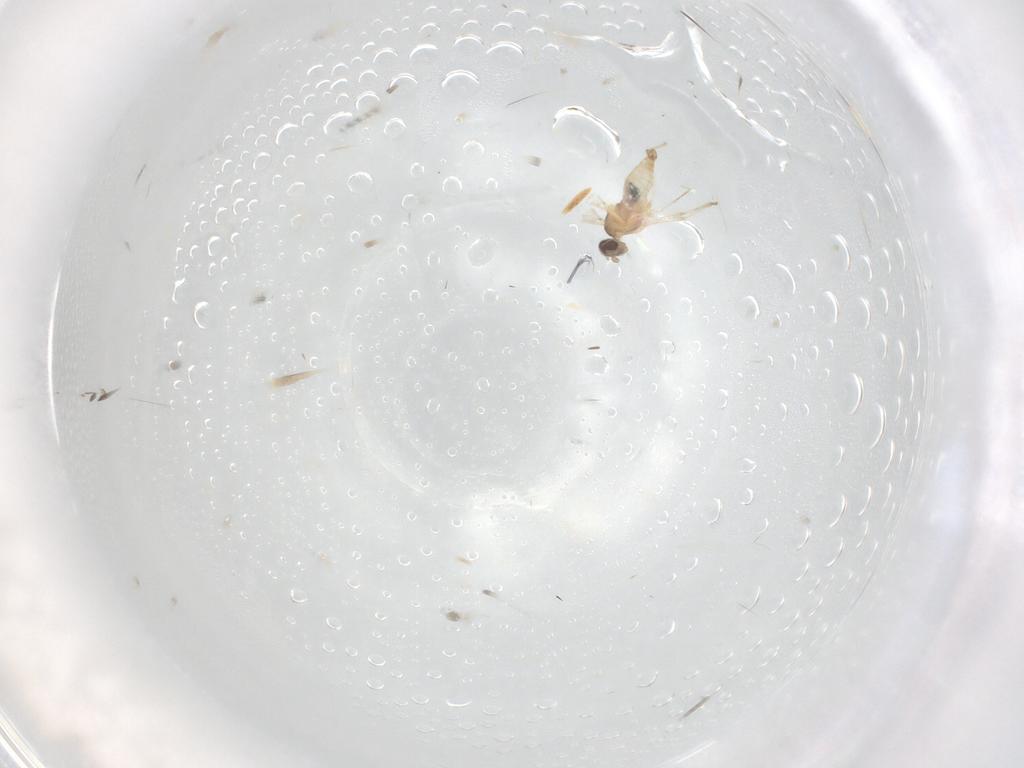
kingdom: Animalia
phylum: Arthropoda
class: Insecta
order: Diptera
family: Cecidomyiidae
